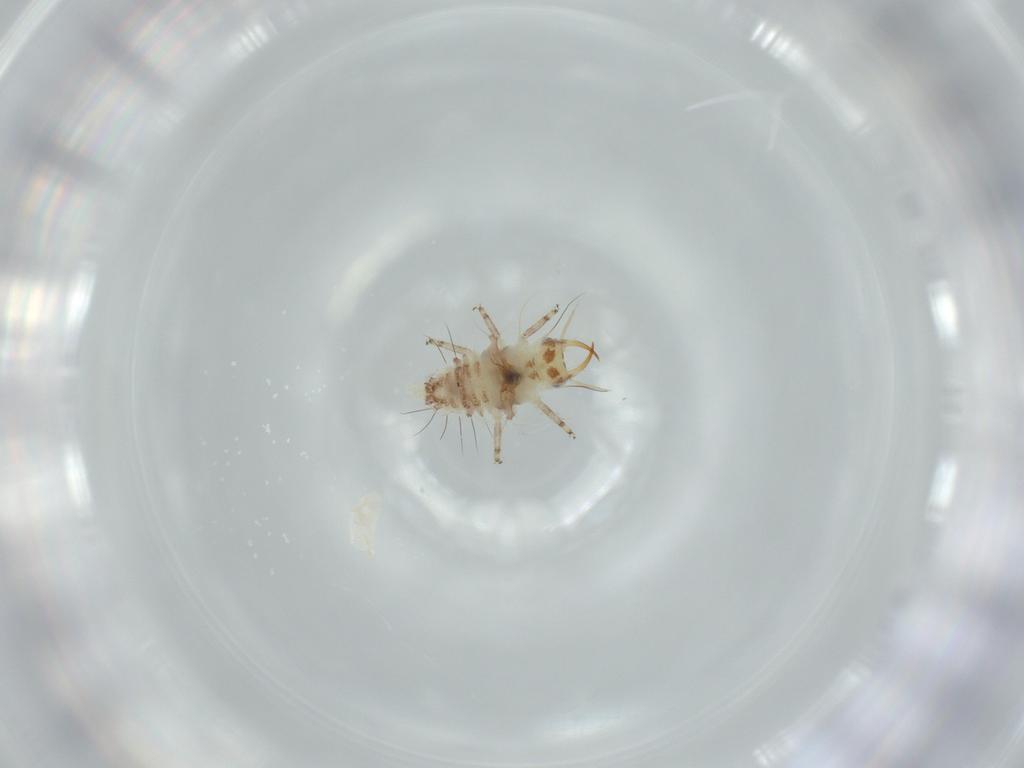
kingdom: Animalia
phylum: Arthropoda
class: Insecta
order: Neuroptera
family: Chrysopidae
